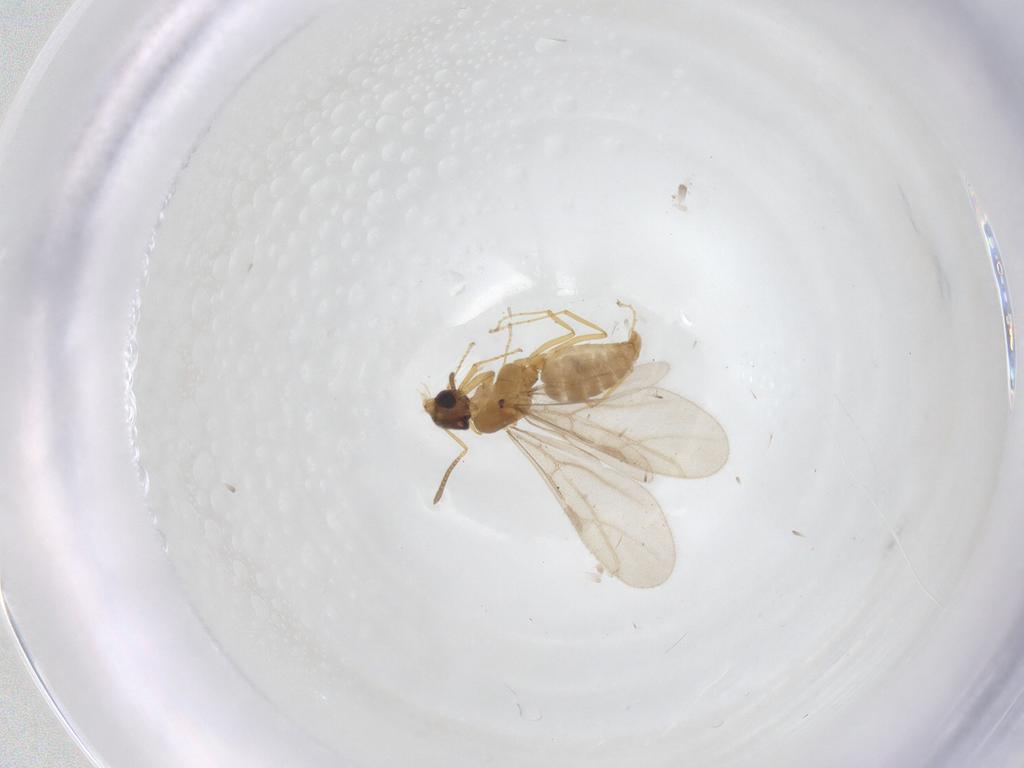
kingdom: Animalia
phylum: Arthropoda
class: Insecta
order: Hymenoptera
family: Formicidae
